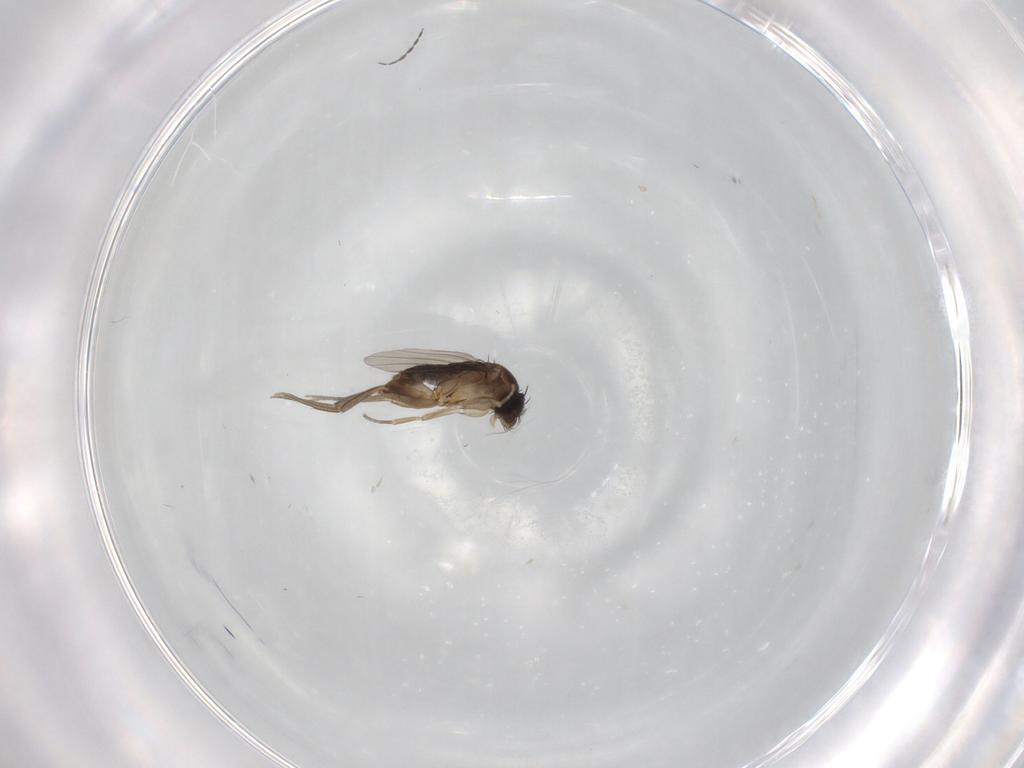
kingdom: Animalia
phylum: Arthropoda
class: Insecta
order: Diptera
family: Phoridae
